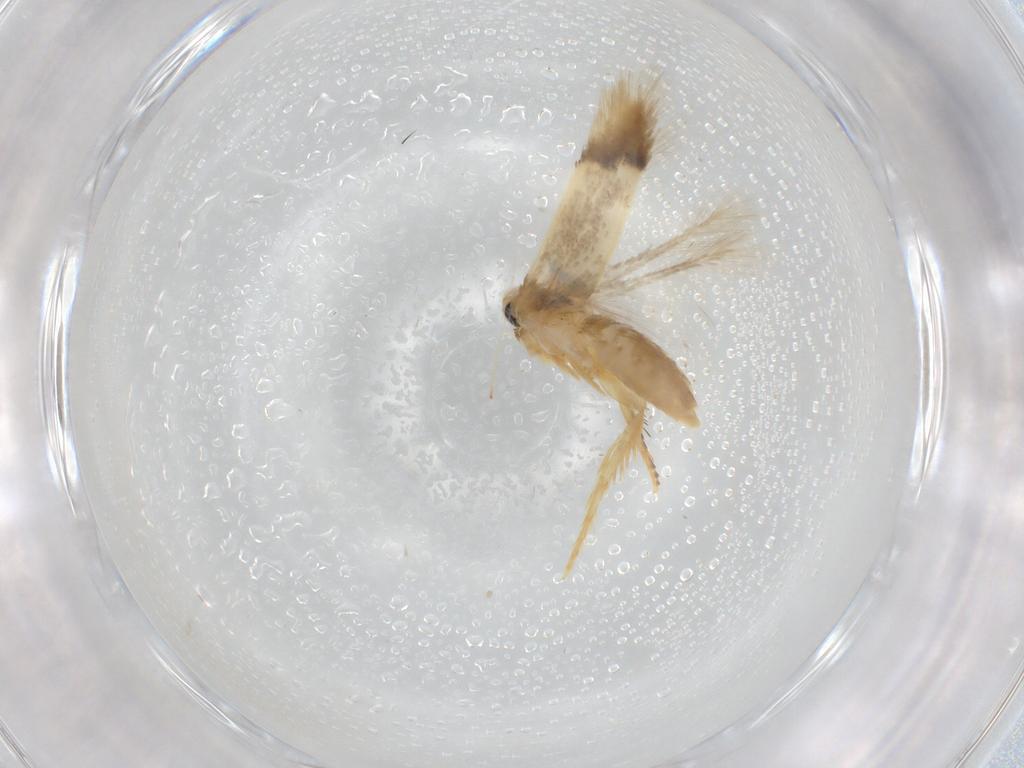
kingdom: Animalia
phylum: Arthropoda
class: Insecta
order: Lepidoptera
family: Opostegidae
